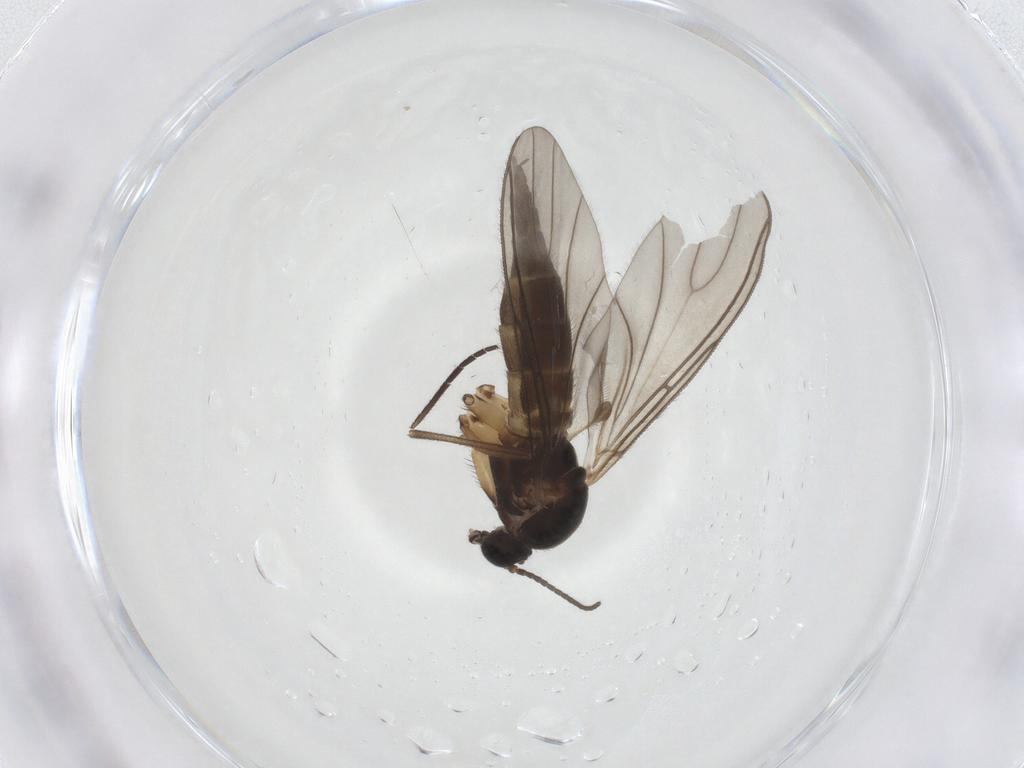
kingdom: Animalia
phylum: Arthropoda
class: Insecta
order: Diptera
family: Sciaridae
